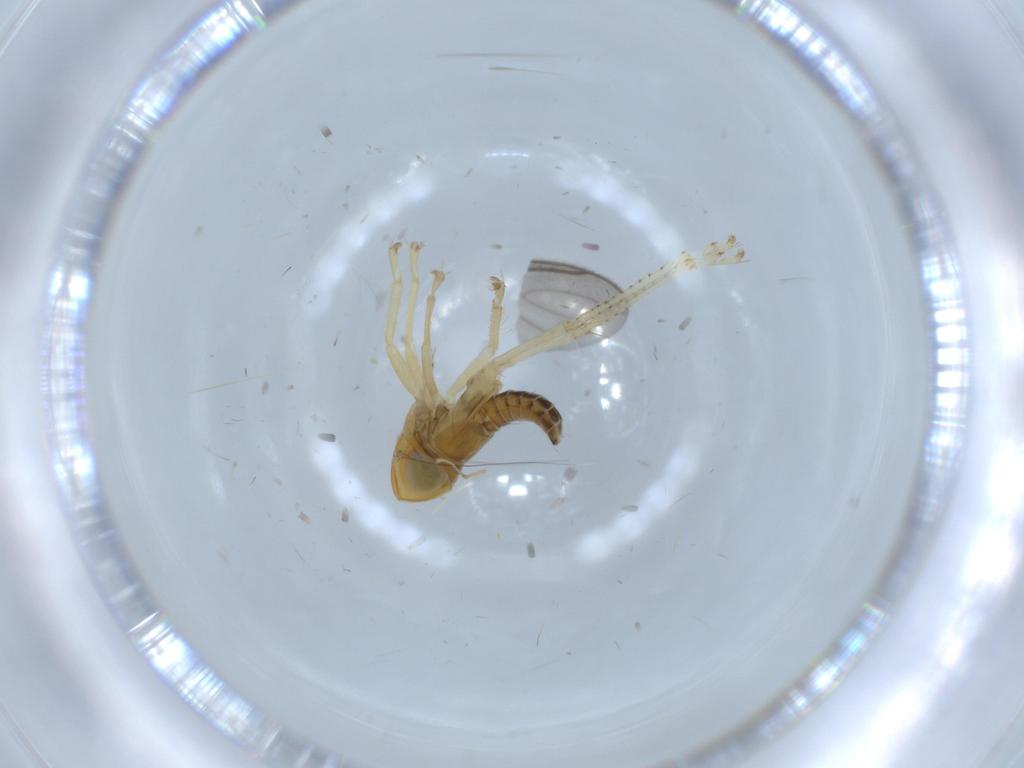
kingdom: Animalia
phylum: Arthropoda
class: Insecta
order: Hemiptera
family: Cicadellidae
